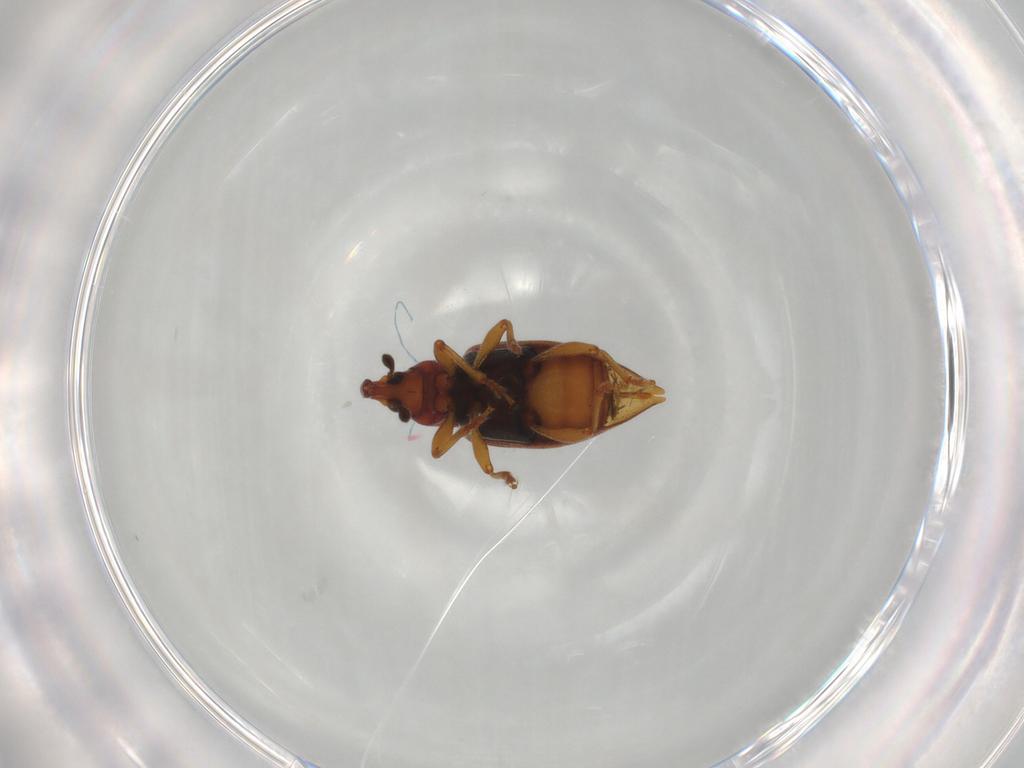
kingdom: Animalia
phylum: Arthropoda
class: Insecta
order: Coleoptera
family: Curculionidae
